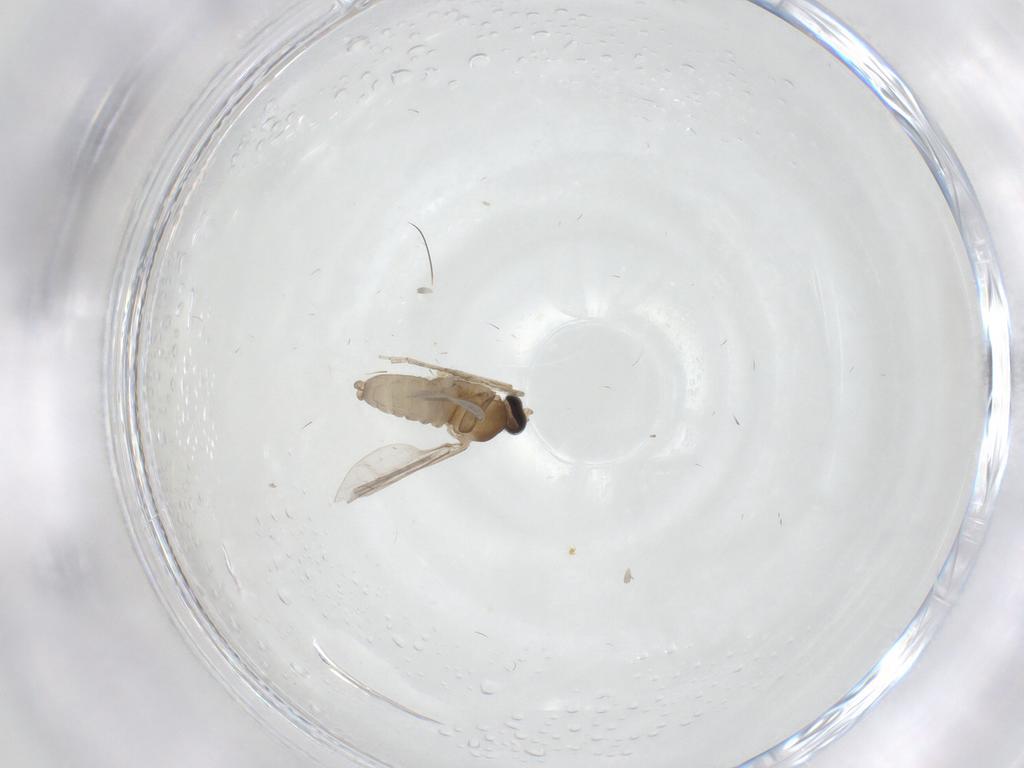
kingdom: Animalia
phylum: Arthropoda
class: Insecta
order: Diptera
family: Cecidomyiidae
